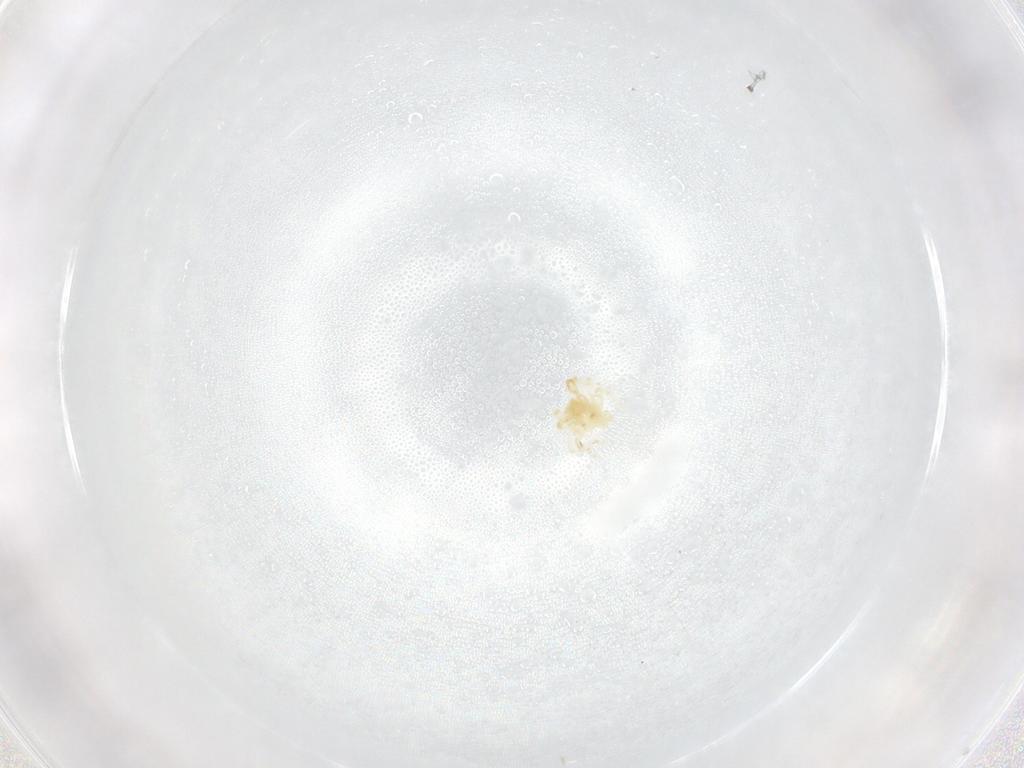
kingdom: Animalia
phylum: Arthropoda
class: Arachnida
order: Trombidiformes
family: Anystidae
